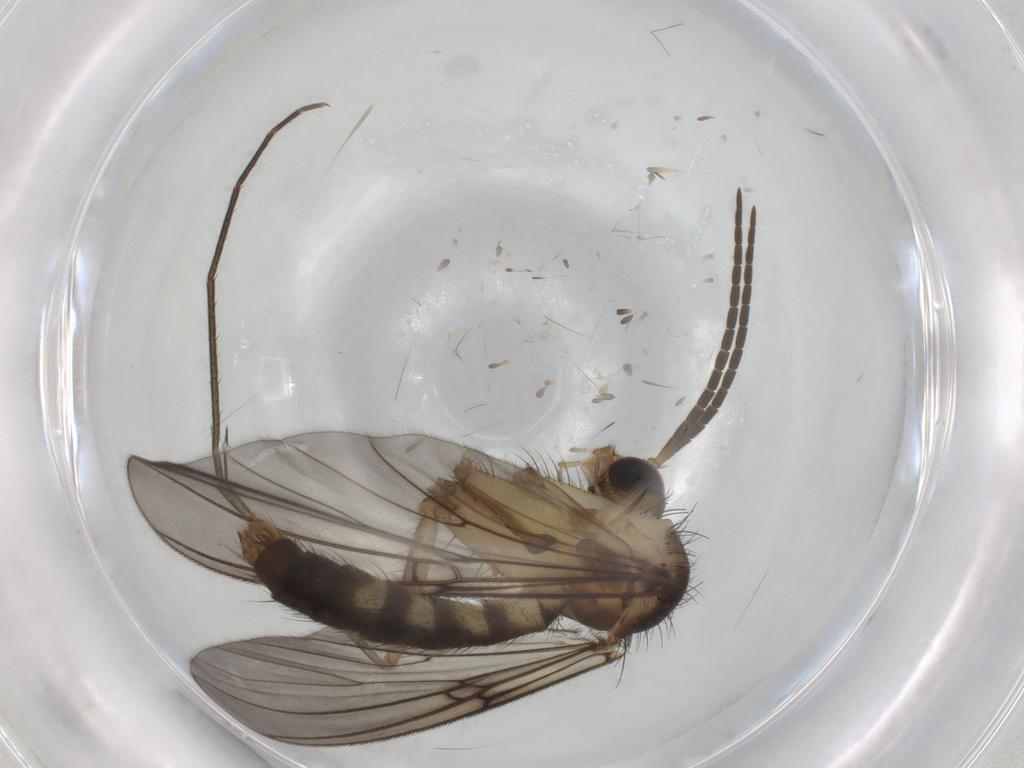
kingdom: Animalia
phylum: Arthropoda
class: Insecta
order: Diptera
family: Mycetophilidae
